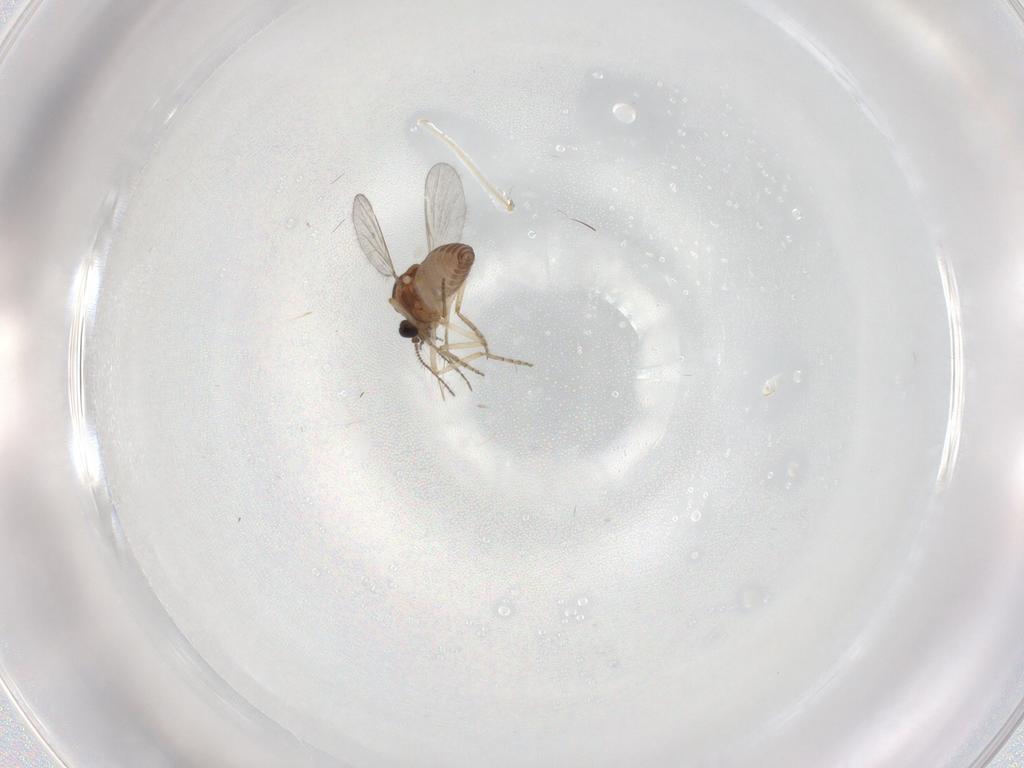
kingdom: Animalia
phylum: Arthropoda
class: Insecta
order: Diptera
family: Ceratopogonidae
